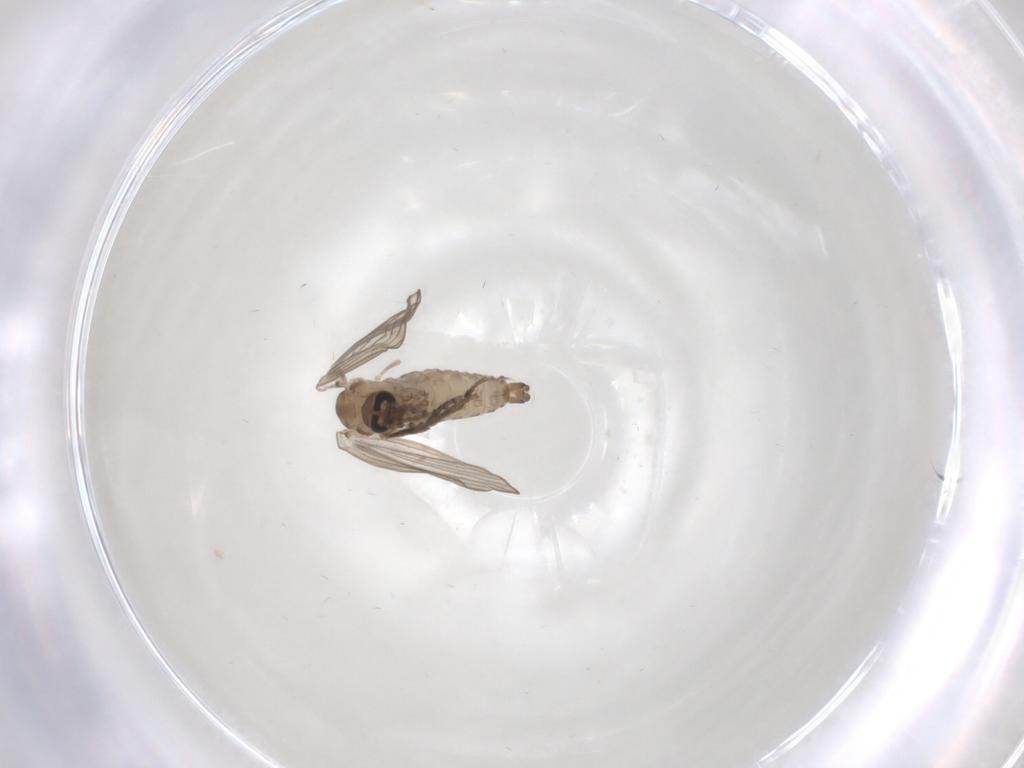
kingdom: Animalia
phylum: Arthropoda
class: Insecta
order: Diptera
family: Psychodidae
